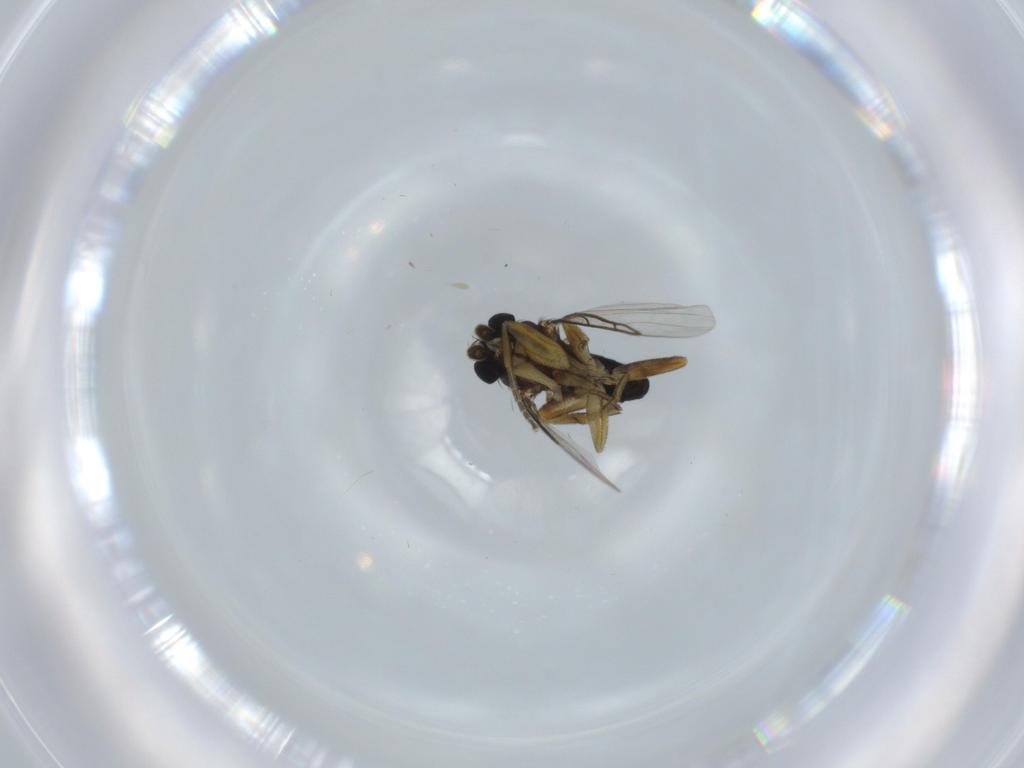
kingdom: Animalia
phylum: Arthropoda
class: Insecta
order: Diptera
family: Phoridae
